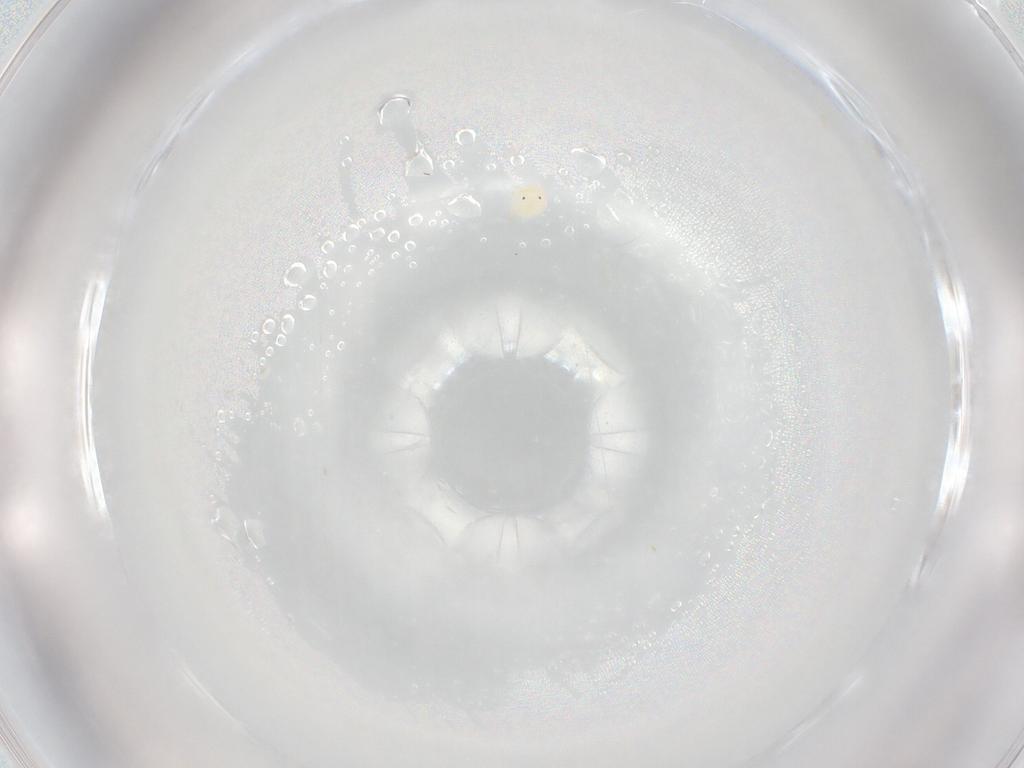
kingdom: Animalia
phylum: Arthropoda
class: Arachnida
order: Trombidiformes
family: Lebertiidae
